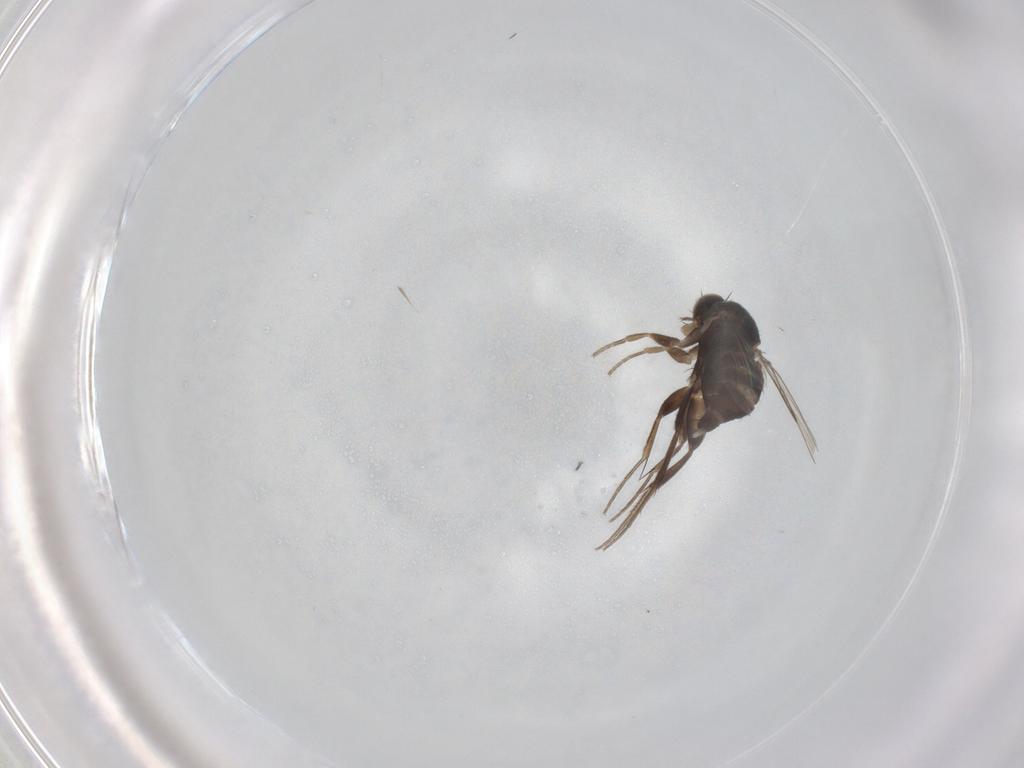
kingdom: Animalia
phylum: Arthropoda
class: Insecta
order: Diptera
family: Phoridae
